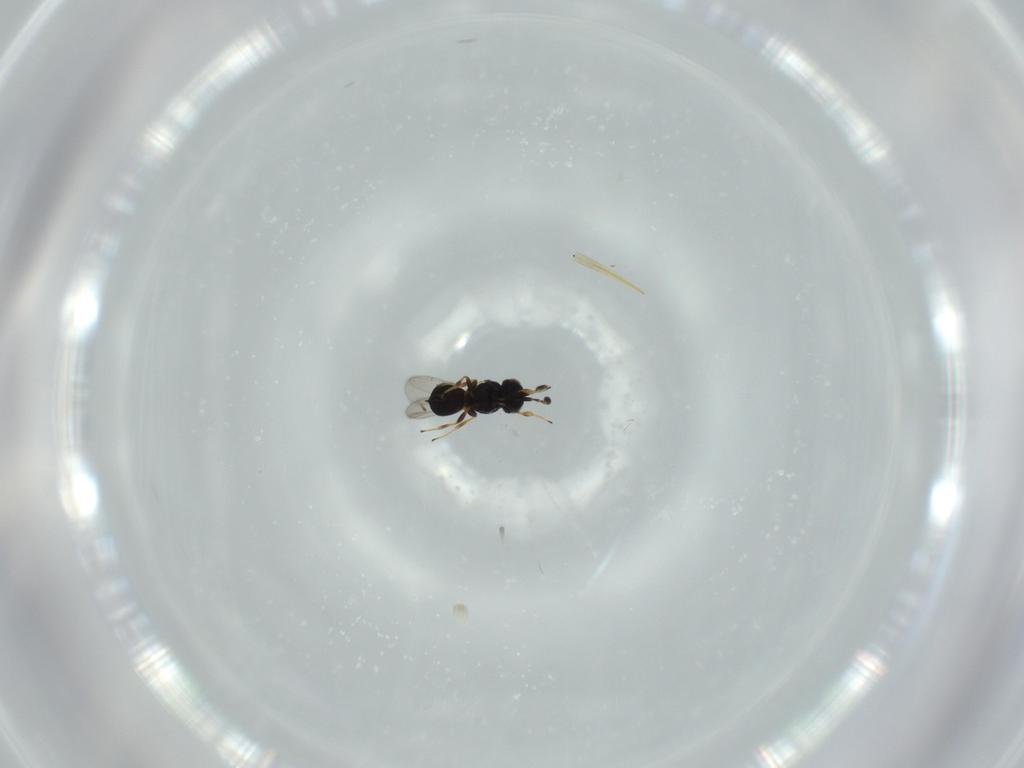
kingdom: Animalia
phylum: Arthropoda
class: Insecta
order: Hymenoptera
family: Scelionidae
